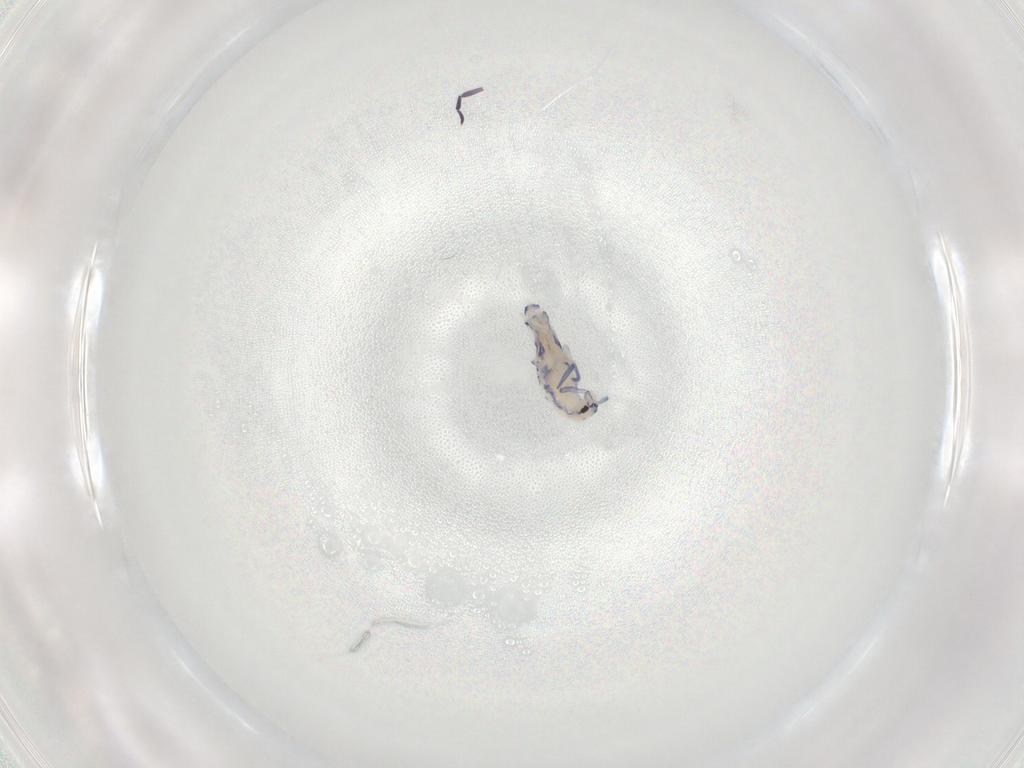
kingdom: Animalia
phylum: Arthropoda
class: Collembola
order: Entomobryomorpha
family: Entomobryidae
